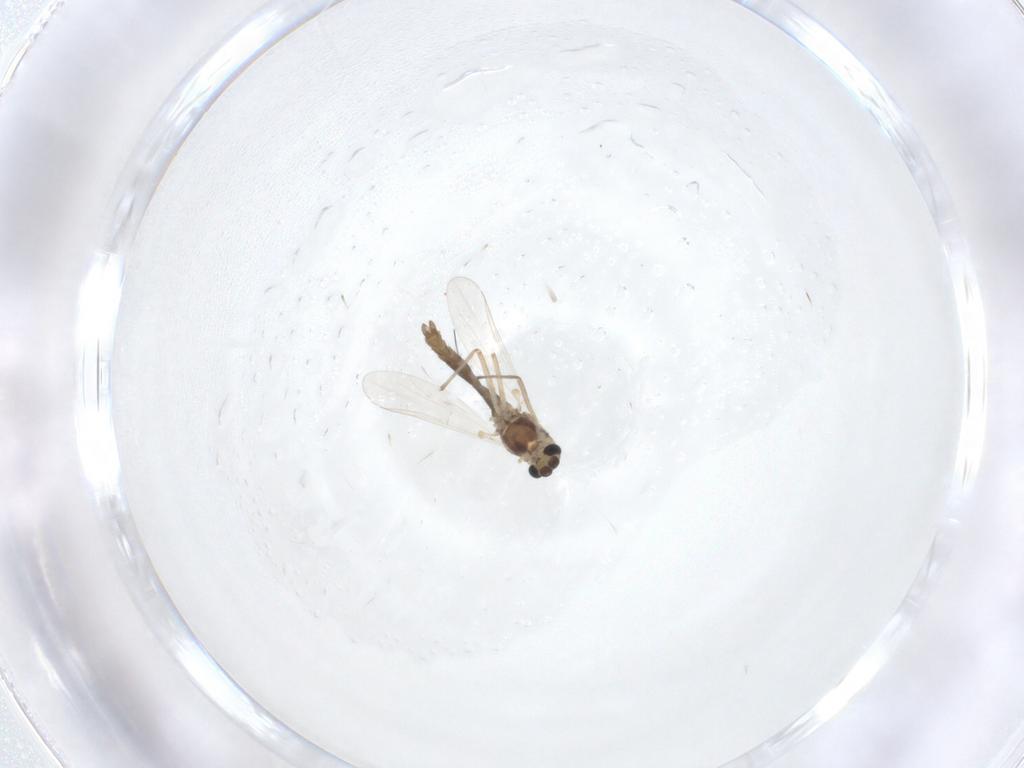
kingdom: Animalia
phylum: Arthropoda
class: Insecta
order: Diptera
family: Chironomidae
